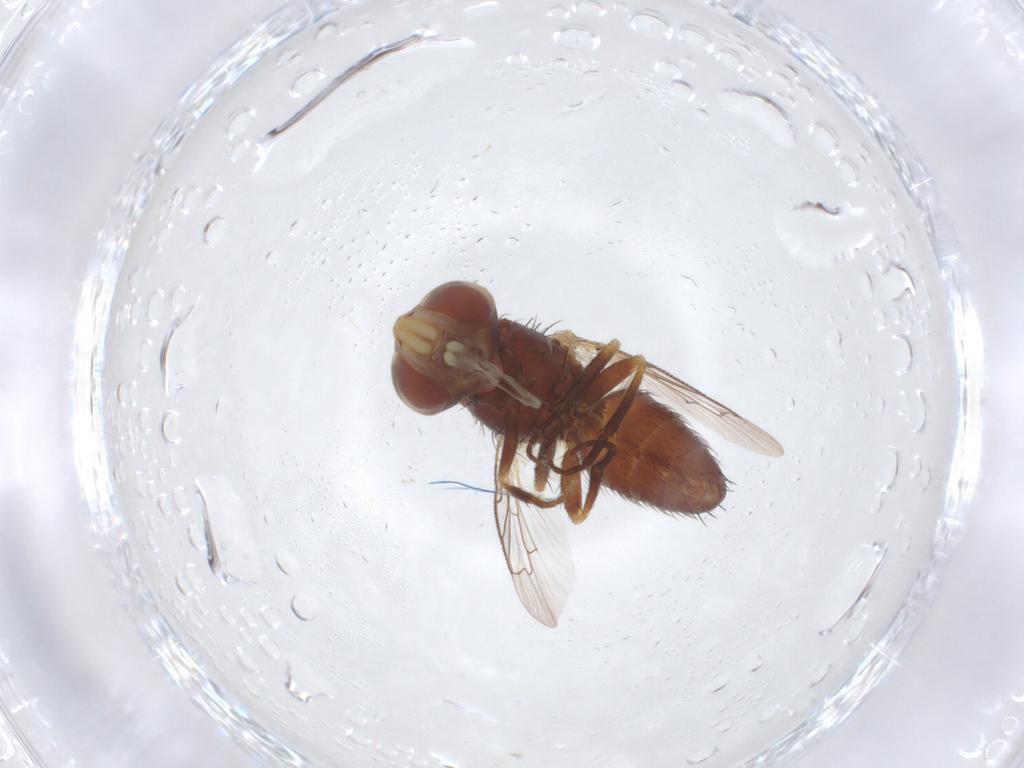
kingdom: Animalia
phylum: Arthropoda
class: Insecta
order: Diptera
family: Sarcophagidae
